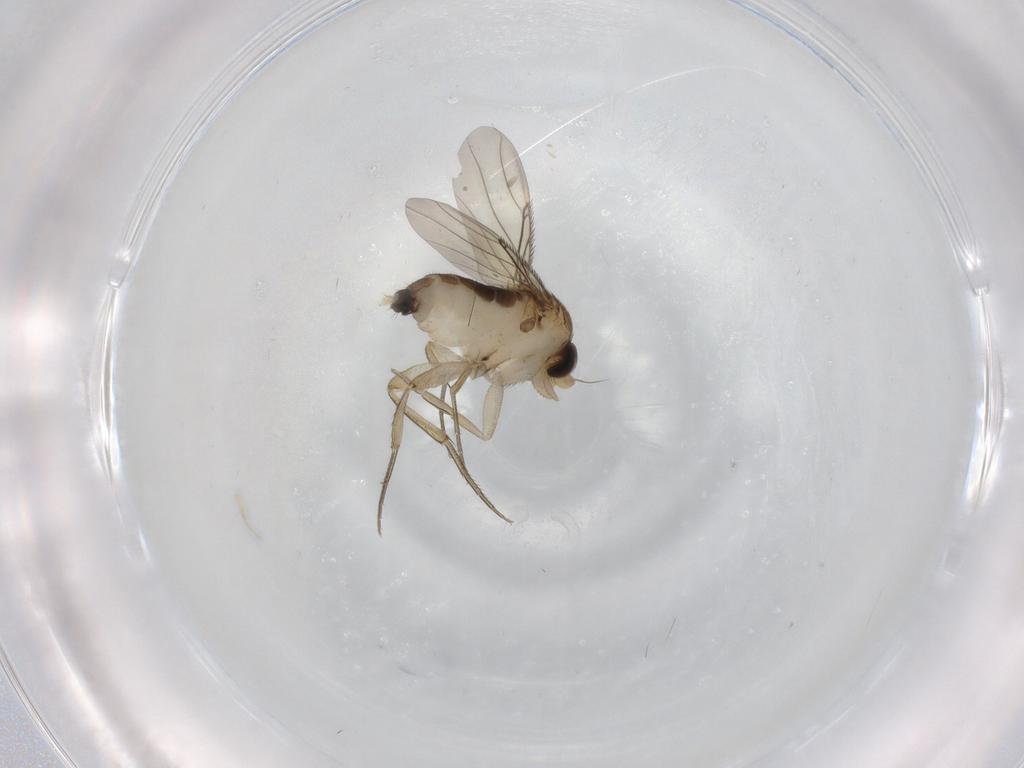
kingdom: Animalia
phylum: Arthropoda
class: Insecta
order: Diptera
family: Phoridae
